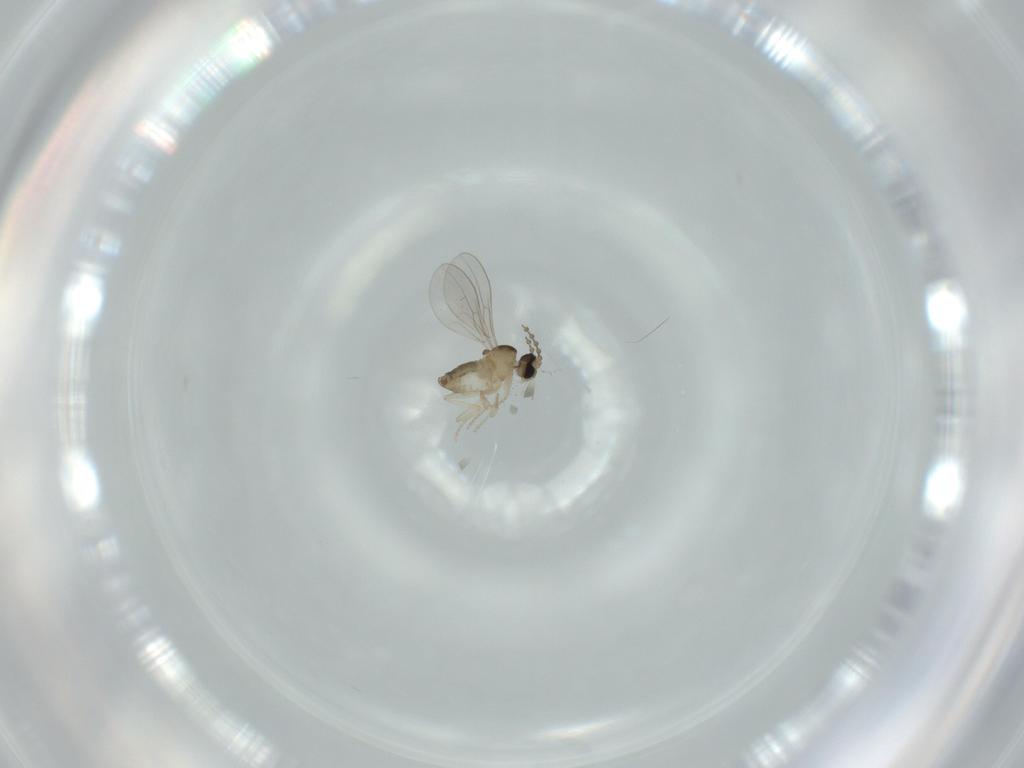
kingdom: Animalia
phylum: Arthropoda
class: Insecta
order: Diptera
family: Cecidomyiidae
